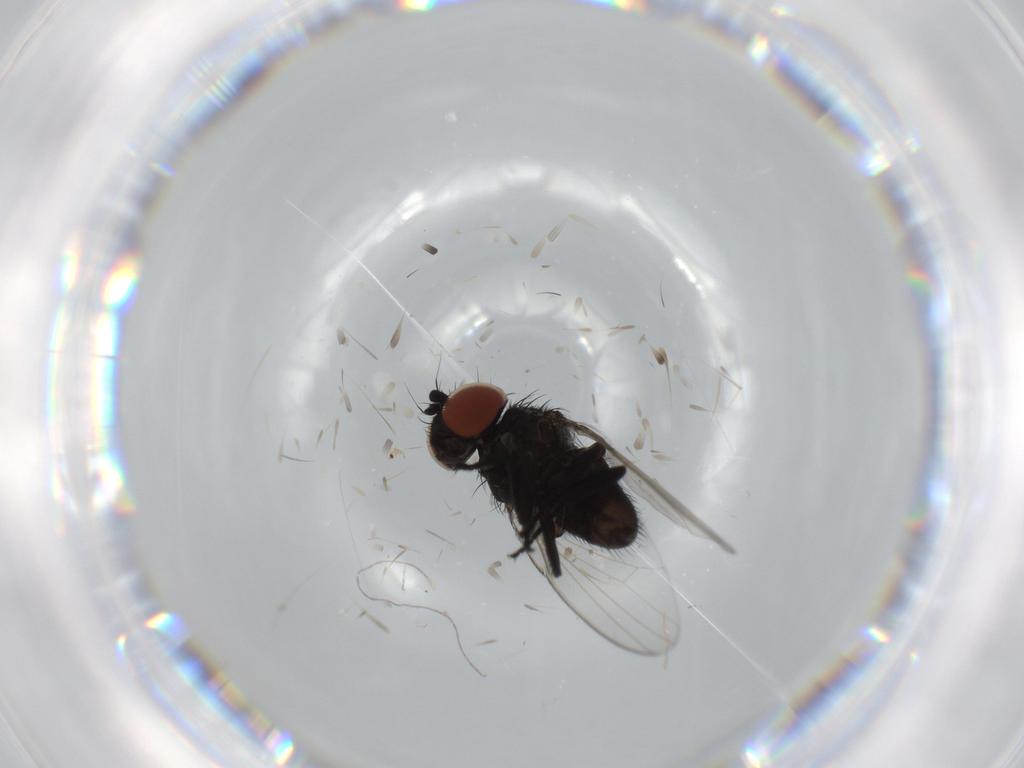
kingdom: Animalia
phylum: Arthropoda
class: Insecta
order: Diptera
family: Milichiidae
